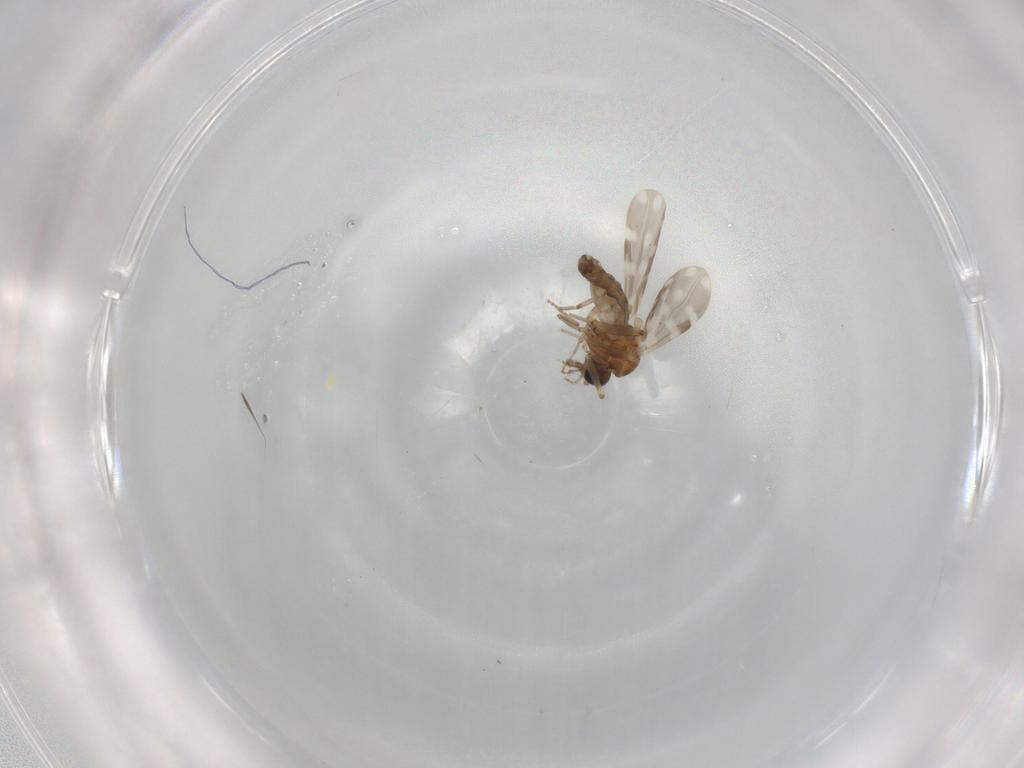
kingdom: Animalia
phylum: Arthropoda
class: Insecta
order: Diptera
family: Ceratopogonidae
